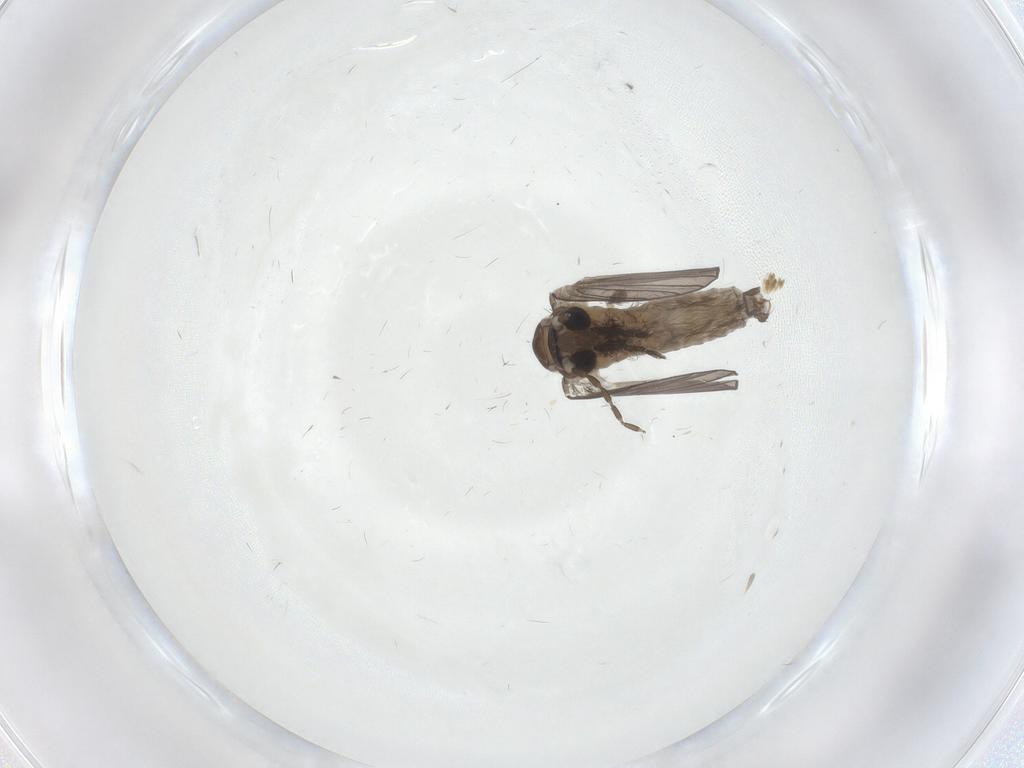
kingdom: Animalia
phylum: Arthropoda
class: Insecta
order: Diptera
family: Psychodidae
